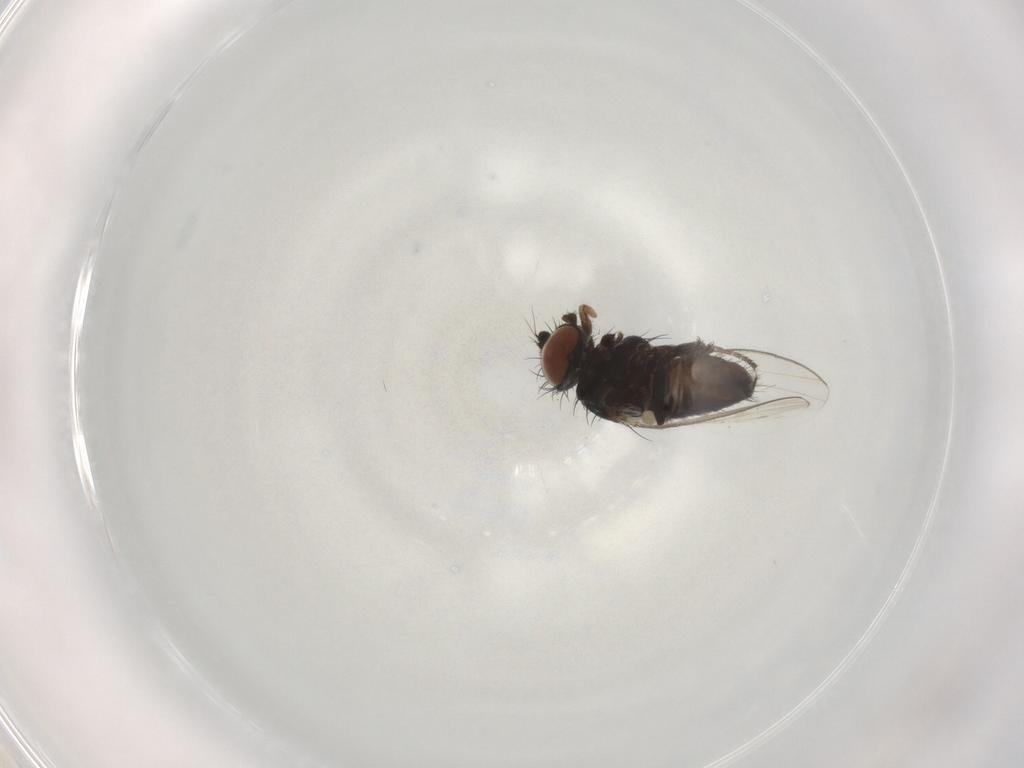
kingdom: Animalia
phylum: Arthropoda
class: Insecta
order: Diptera
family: Milichiidae
